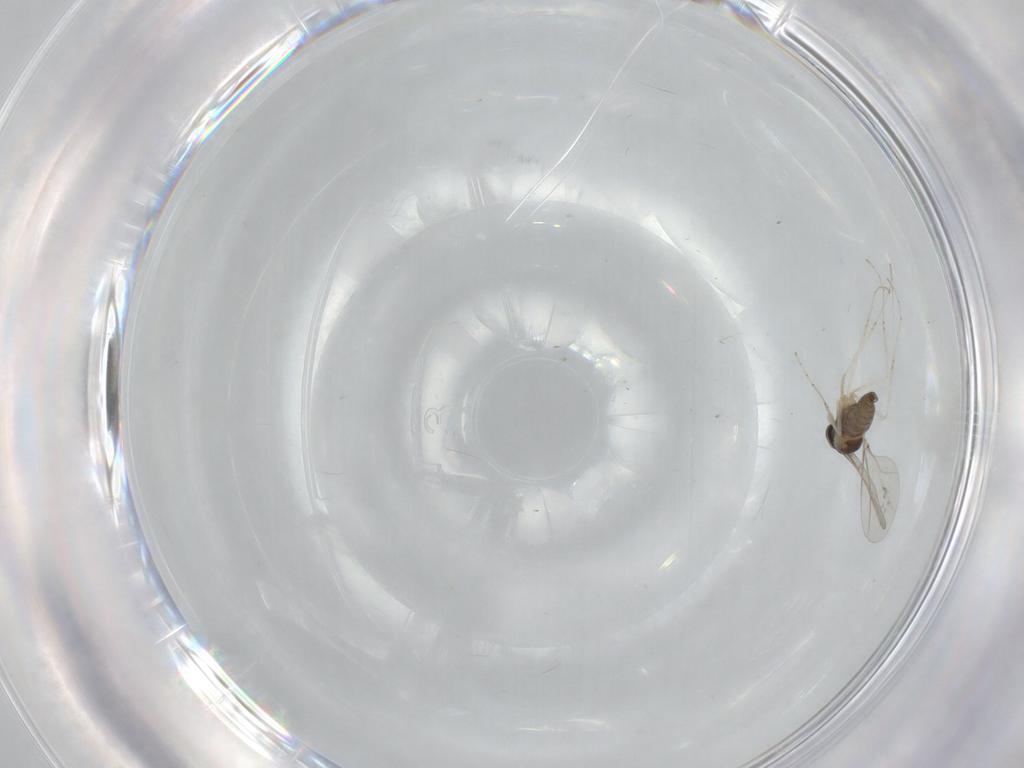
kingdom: Animalia
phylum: Arthropoda
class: Insecta
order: Diptera
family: Cecidomyiidae
